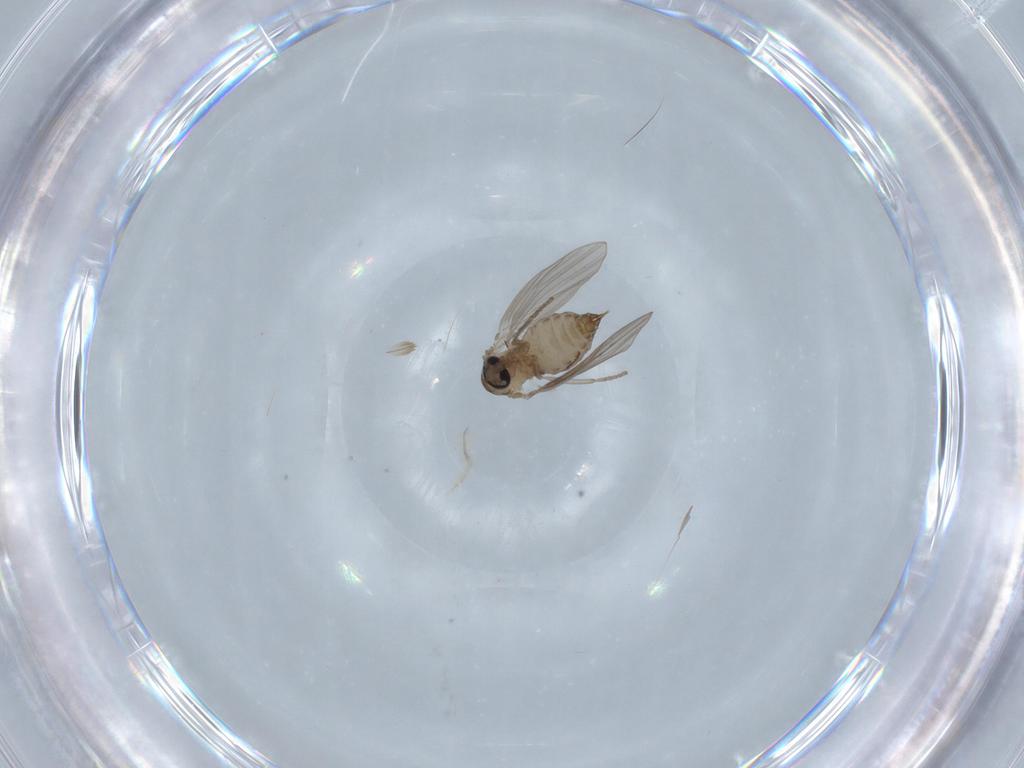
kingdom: Animalia
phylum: Arthropoda
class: Insecta
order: Diptera
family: Psychodidae
